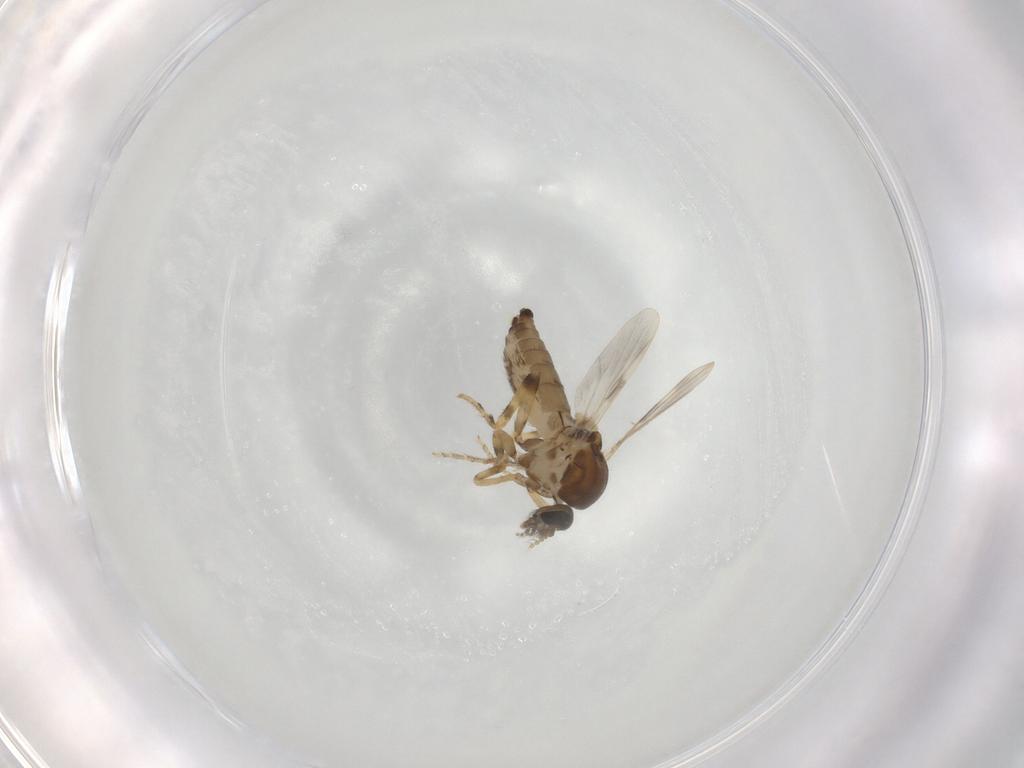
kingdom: Animalia
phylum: Arthropoda
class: Insecta
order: Diptera
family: Ceratopogonidae
